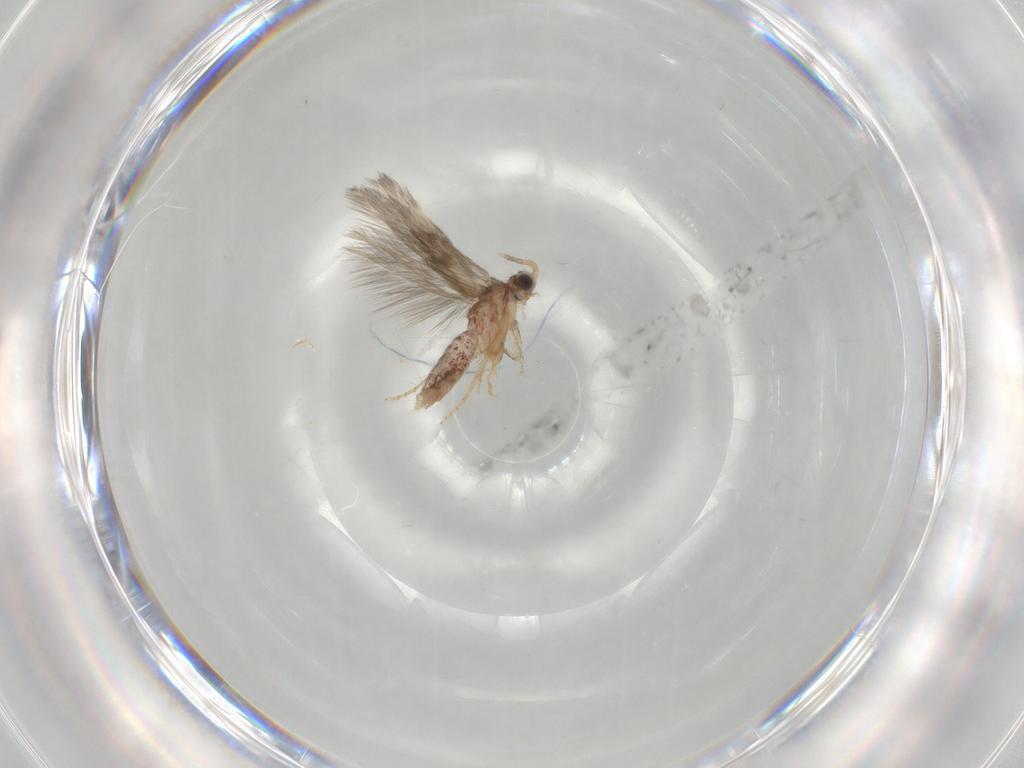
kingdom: Animalia
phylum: Arthropoda
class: Insecta
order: Trichoptera
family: Hydroptilidae
